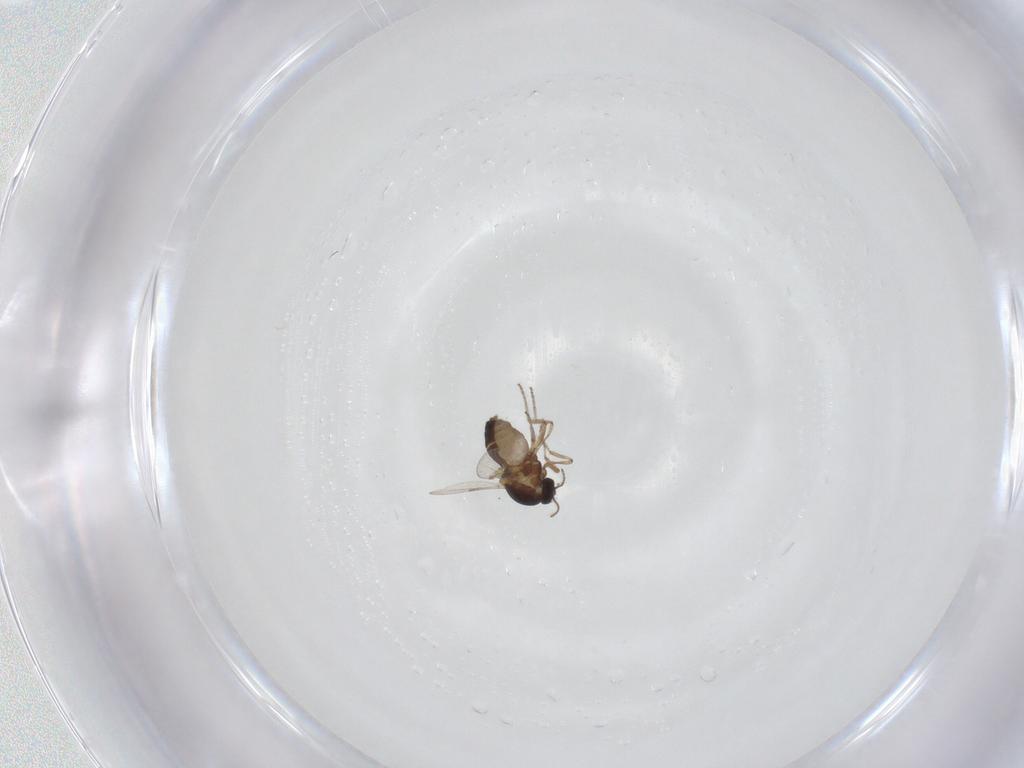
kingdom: Animalia
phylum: Arthropoda
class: Insecta
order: Diptera
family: Ceratopogonidae
